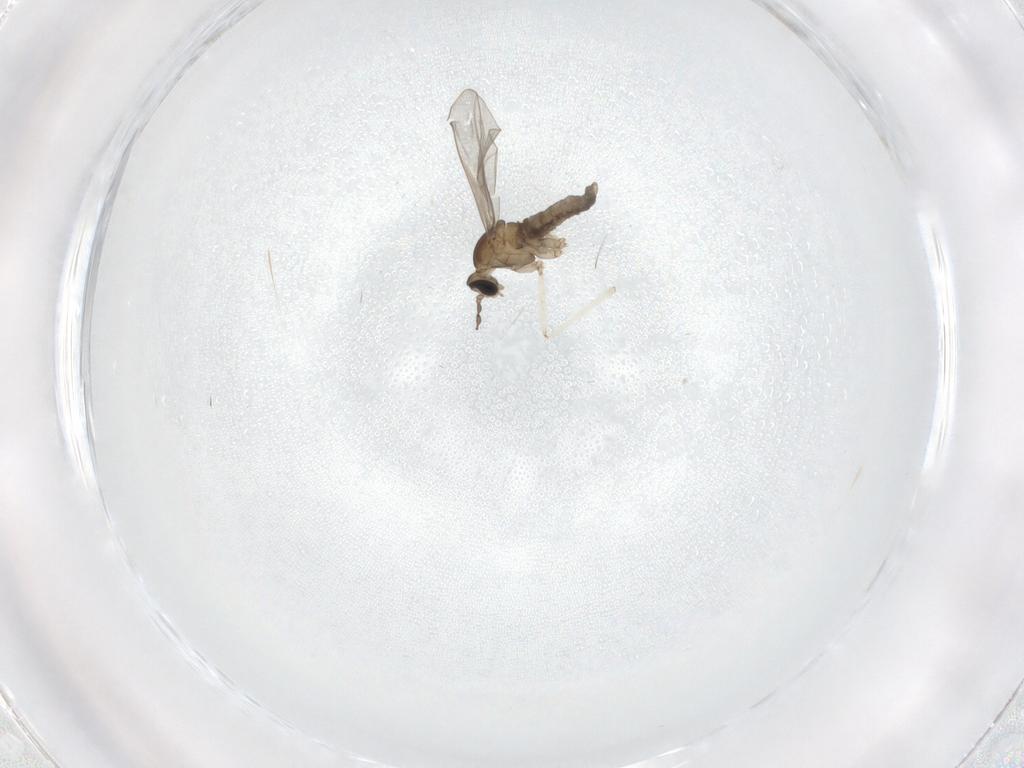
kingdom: Animalia
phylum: Arthropoda
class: Insecta
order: Diptera
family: Cecidomyiidae
